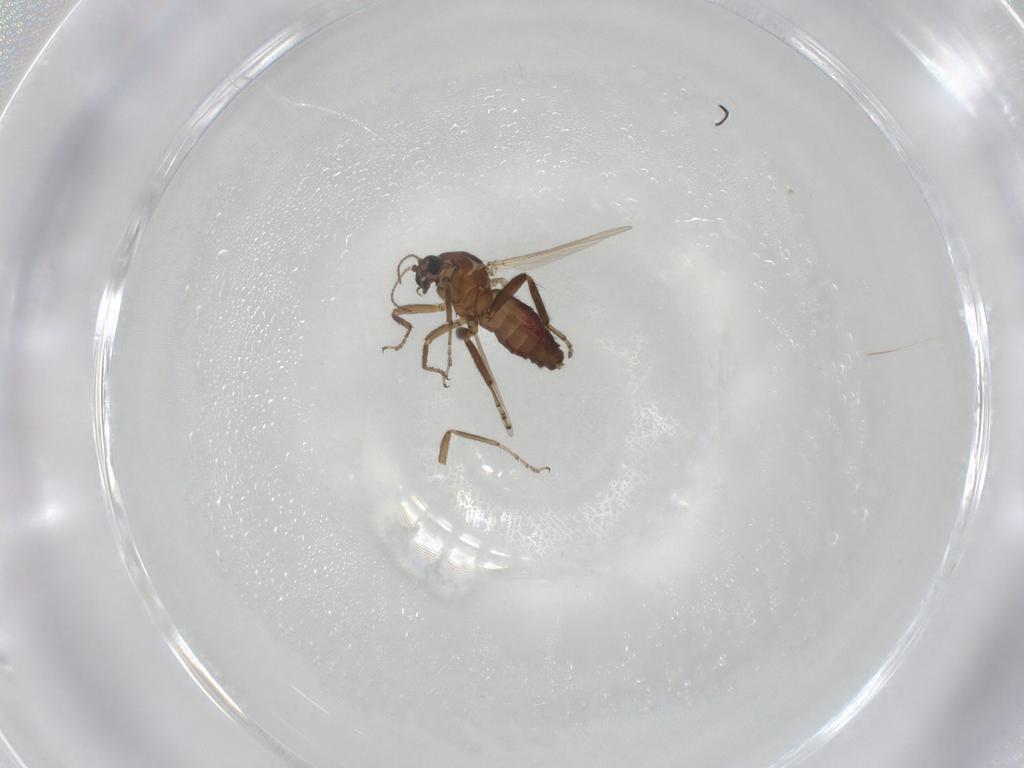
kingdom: Animalia
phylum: Arthropoda
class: Insecta
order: Diptera
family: Ceratopogonidae
